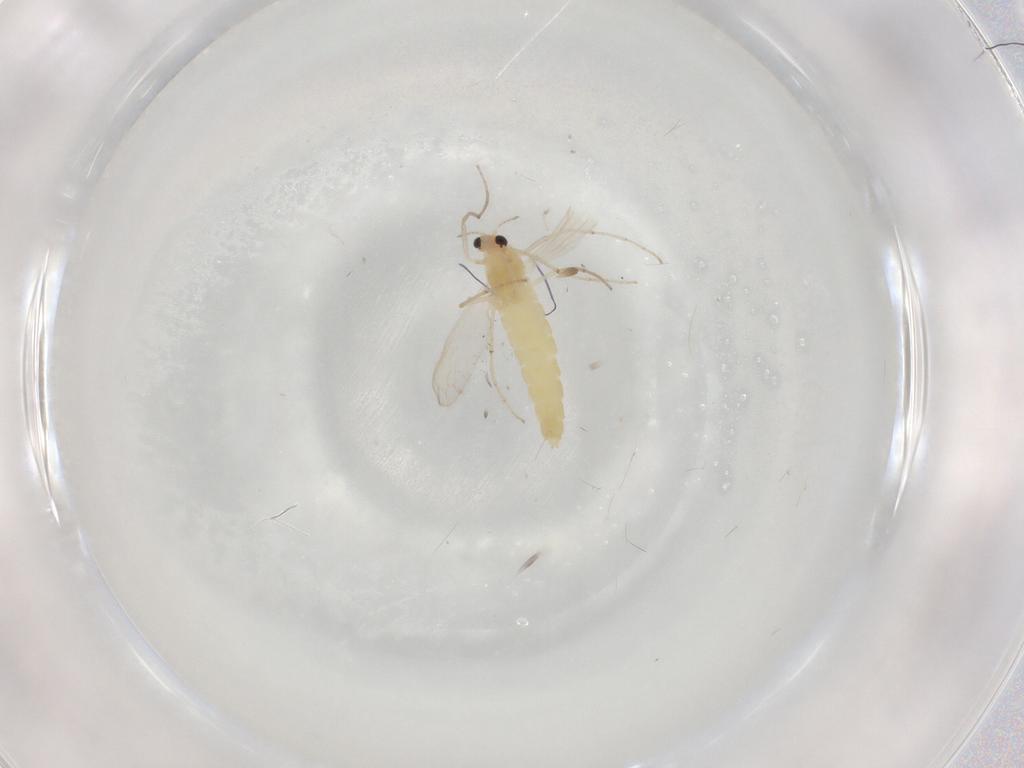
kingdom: Animalia
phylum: Arthropoda
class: Insecta
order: Diptera
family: Chironomidae
